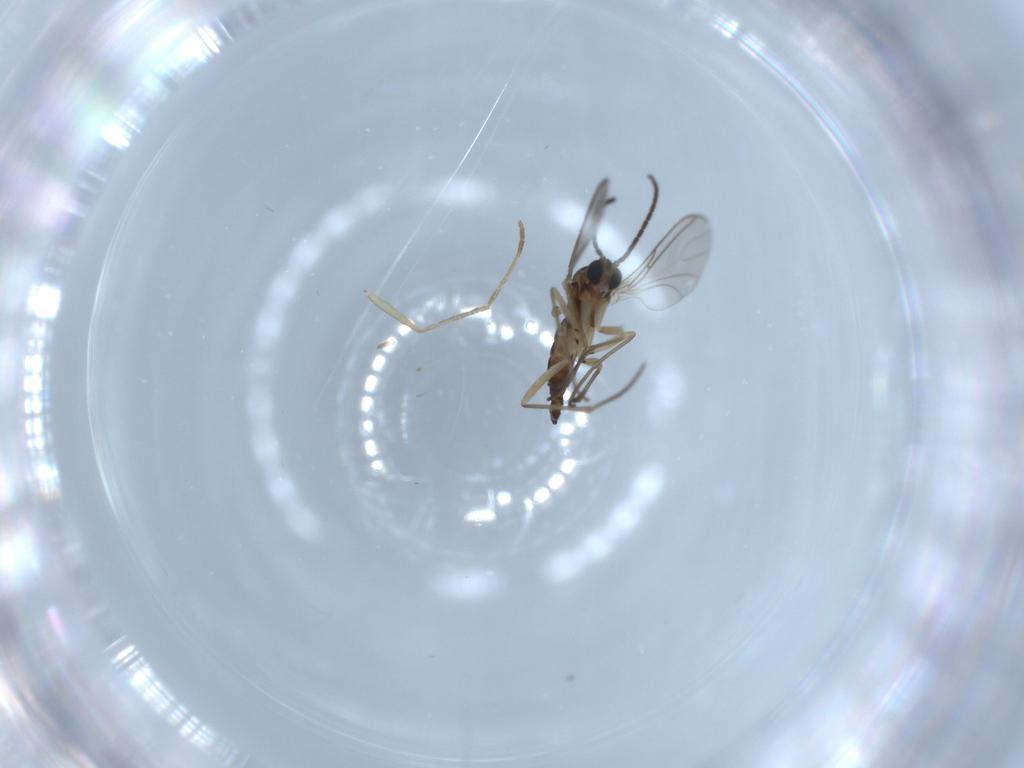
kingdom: Animalia
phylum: Arthropoda
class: Insecta
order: Diptera
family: Psychodidae
